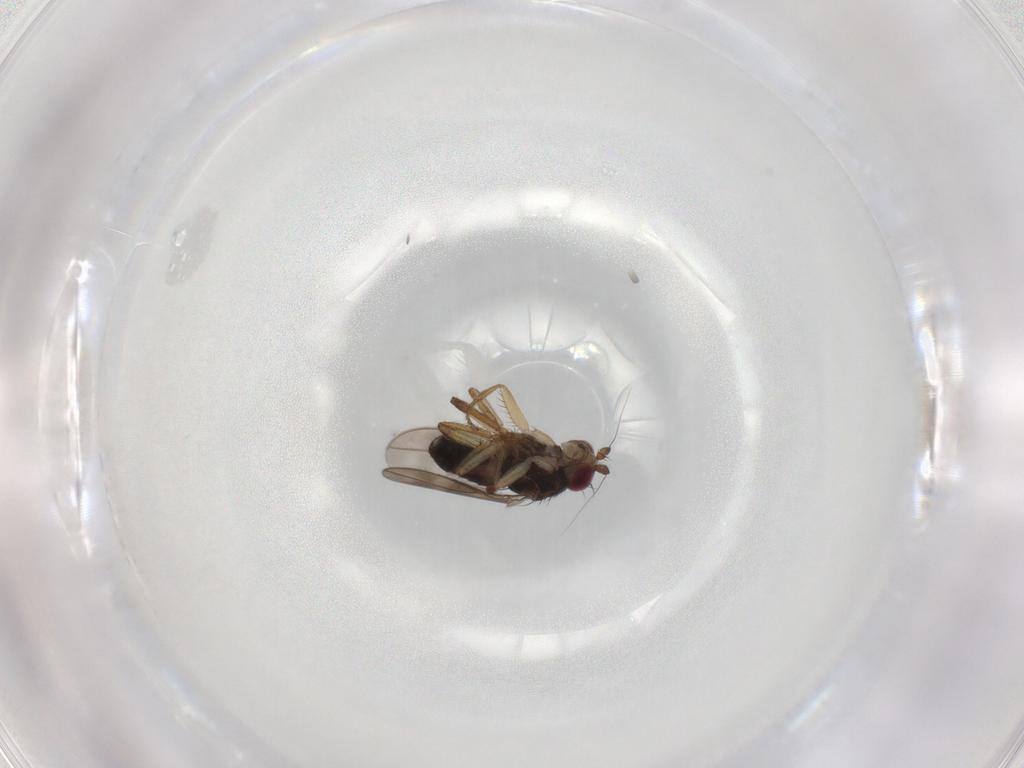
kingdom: Animalia
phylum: Arthropoda
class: Insecta
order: Diptera
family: Sphaeroceridae
